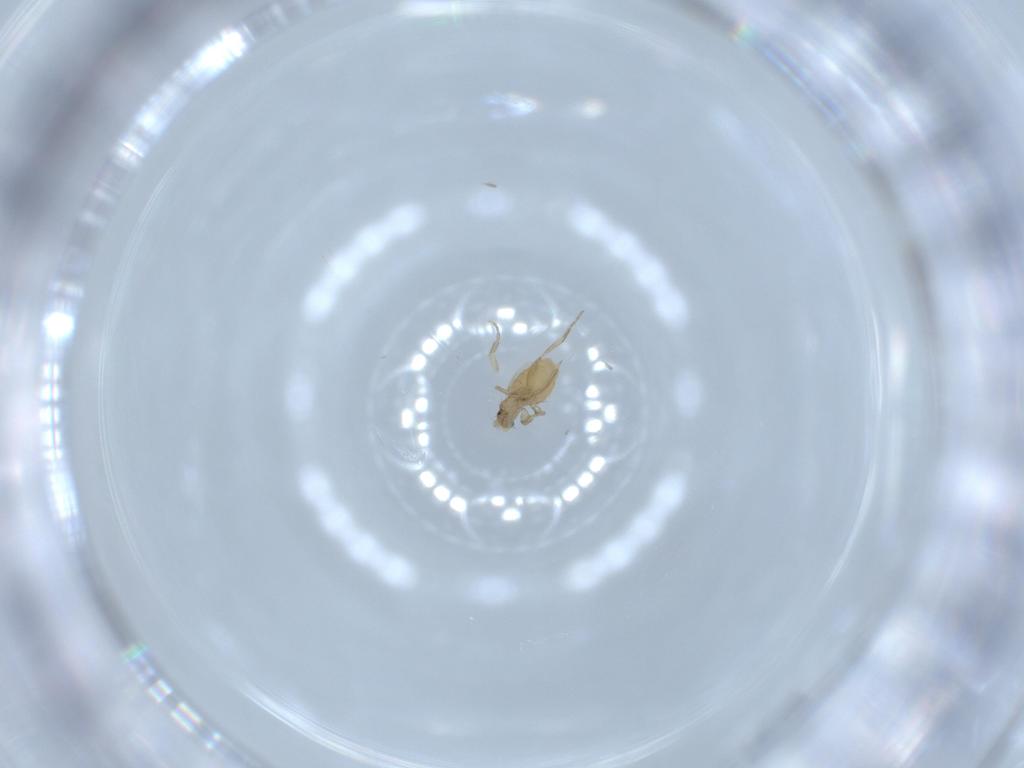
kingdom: Animalia
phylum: Arthropoda
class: Insecta
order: Diptera
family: Phoridae
